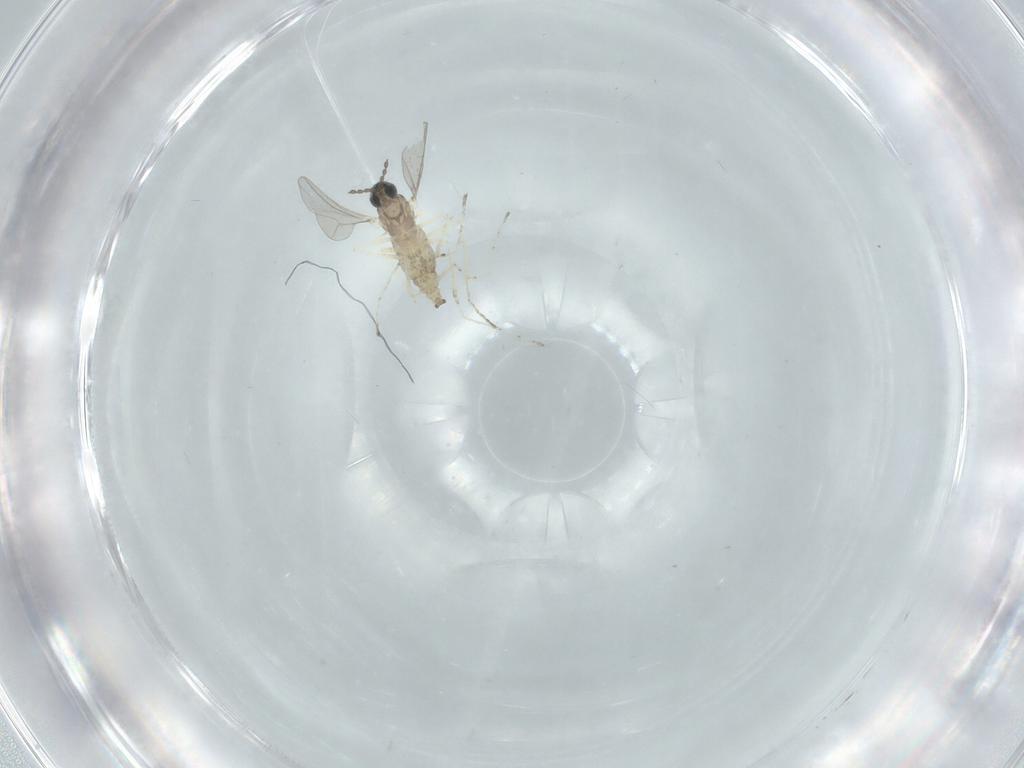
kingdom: Animalia
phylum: Arthropoda
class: Insecta
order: Diptera
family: Cecidomyiidae
